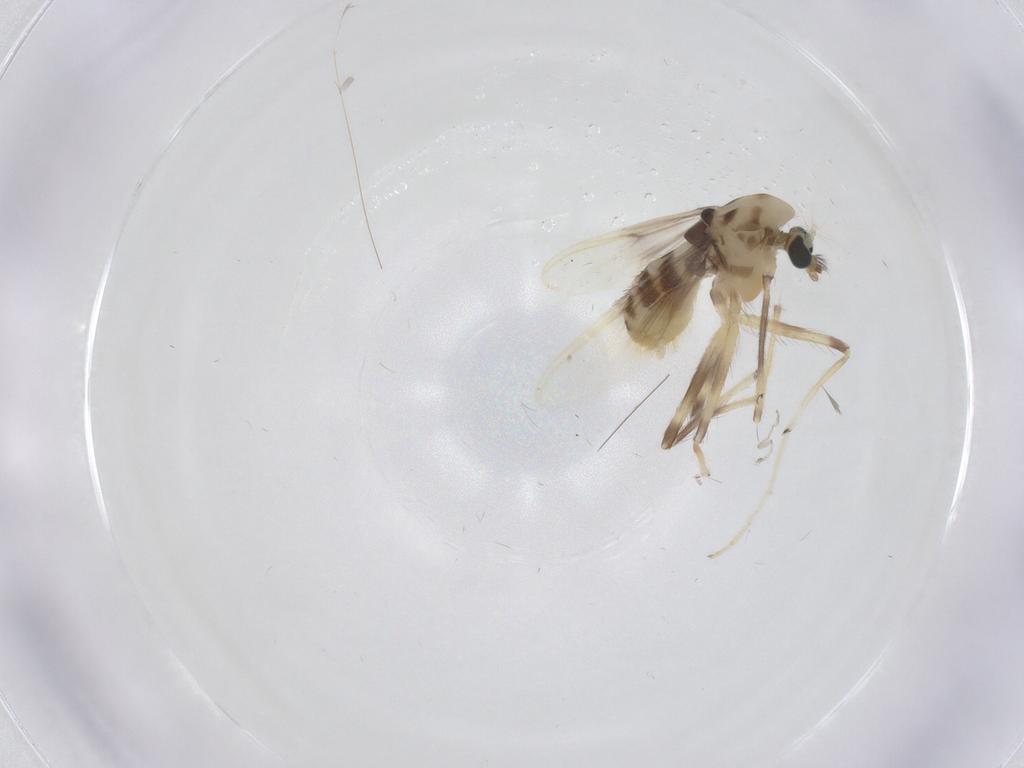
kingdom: Animalia
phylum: Arthropoda
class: Insecta
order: Diptera
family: Chironomidae
